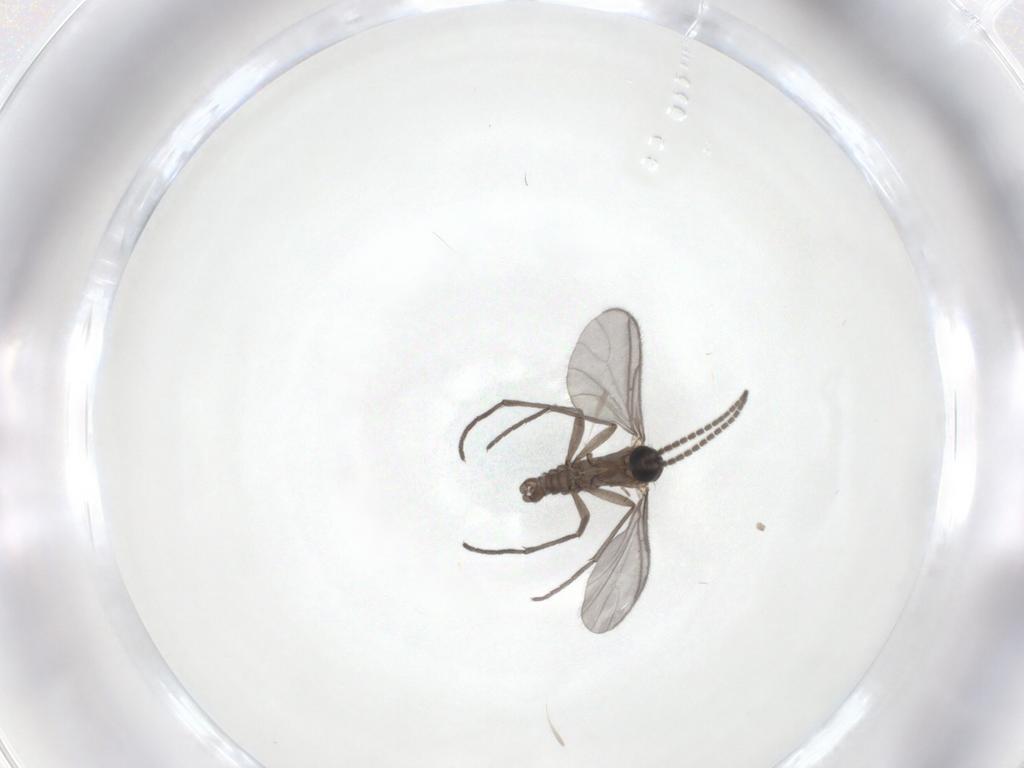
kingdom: Animalia
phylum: Arthropoda
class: Insecta
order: Diptera
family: Sciaridae
